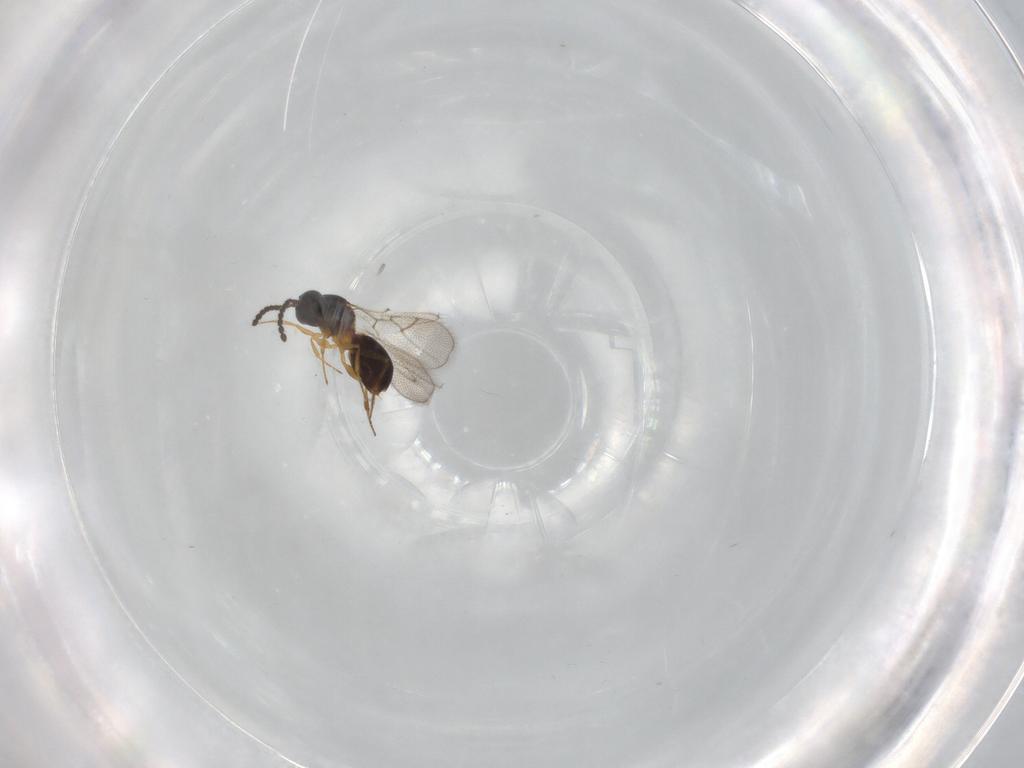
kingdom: Animalia
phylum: Arthropoda
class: Insecta
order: Hymenoptera
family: Figitidae
